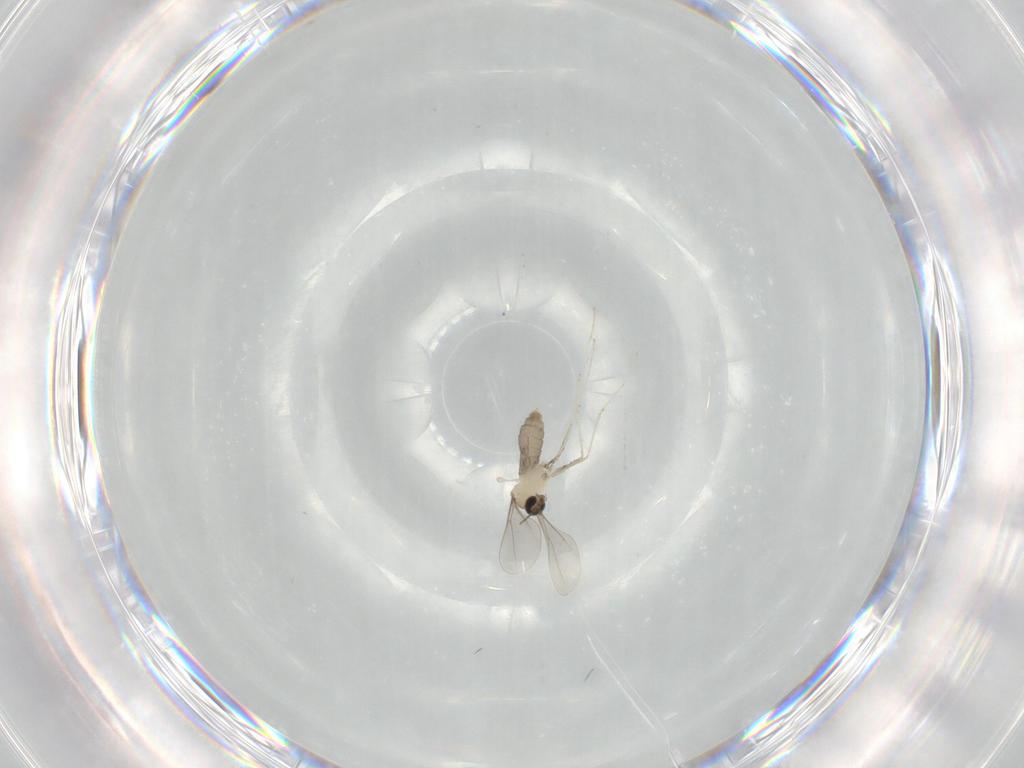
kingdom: Animalia
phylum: Arthropoda
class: Insecta
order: Diptera
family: Cecidomyiidae
